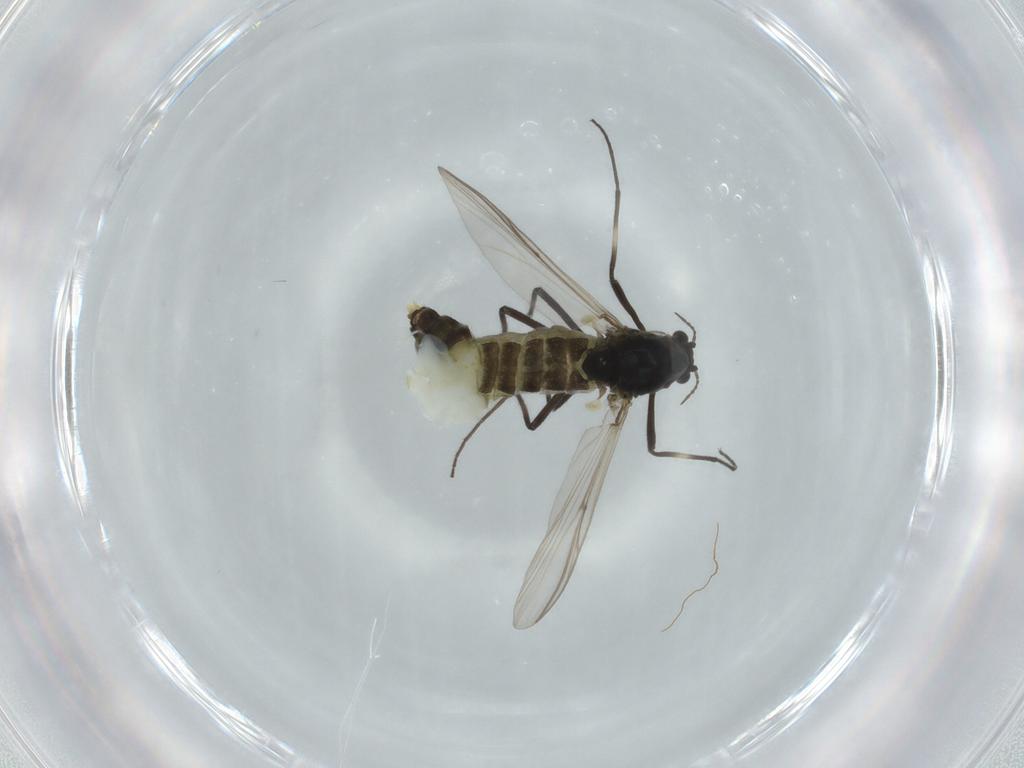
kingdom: Animalia
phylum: Arthropoda
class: Insecta
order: Diptera
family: Chironomidae
